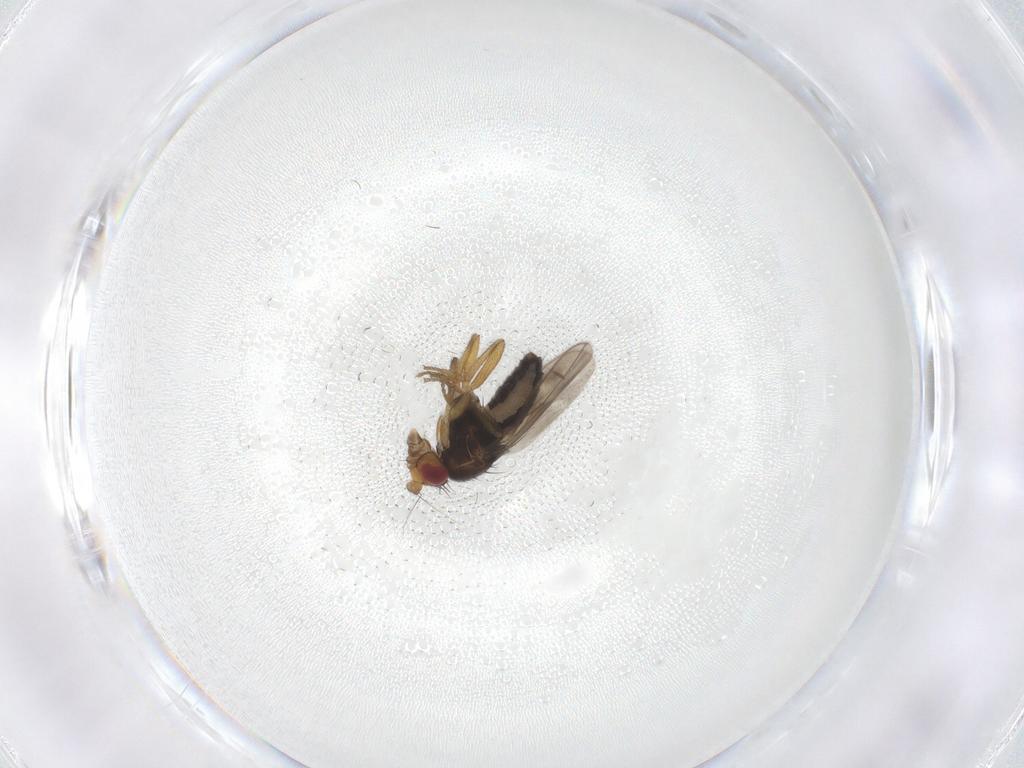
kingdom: Animalia
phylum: Arthropoda
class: Insecta
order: Diptera
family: Sphaeroceridae
